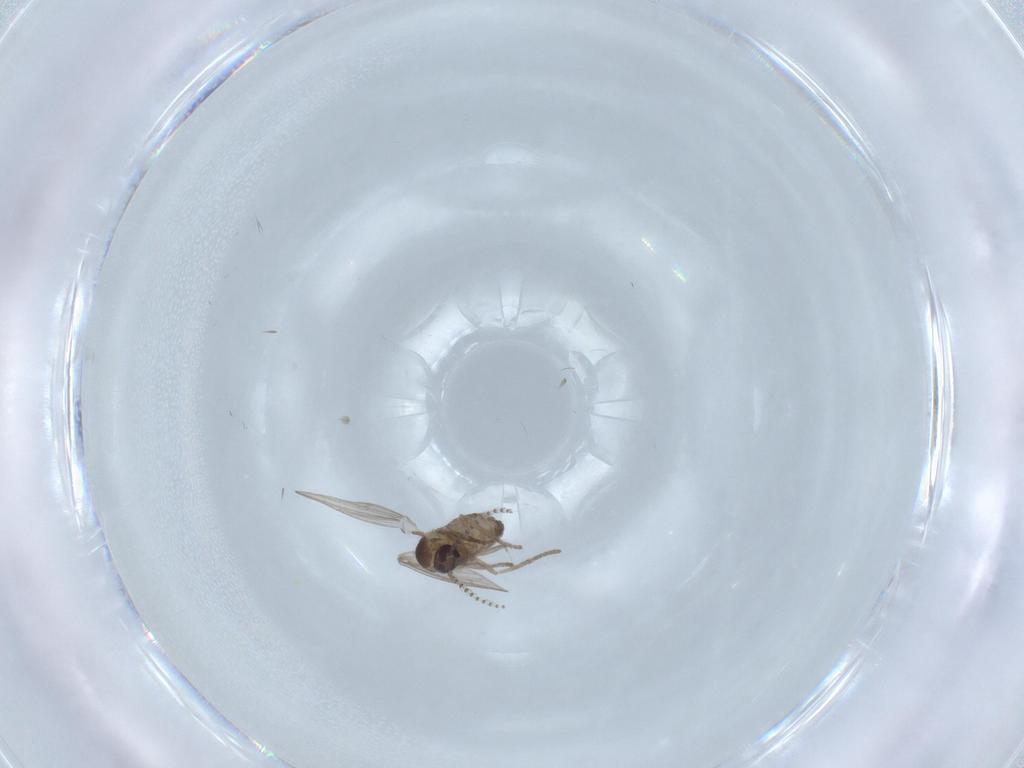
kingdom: Animalia
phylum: Arthropoda
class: Insecta
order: Diptera
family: Psychodidae
